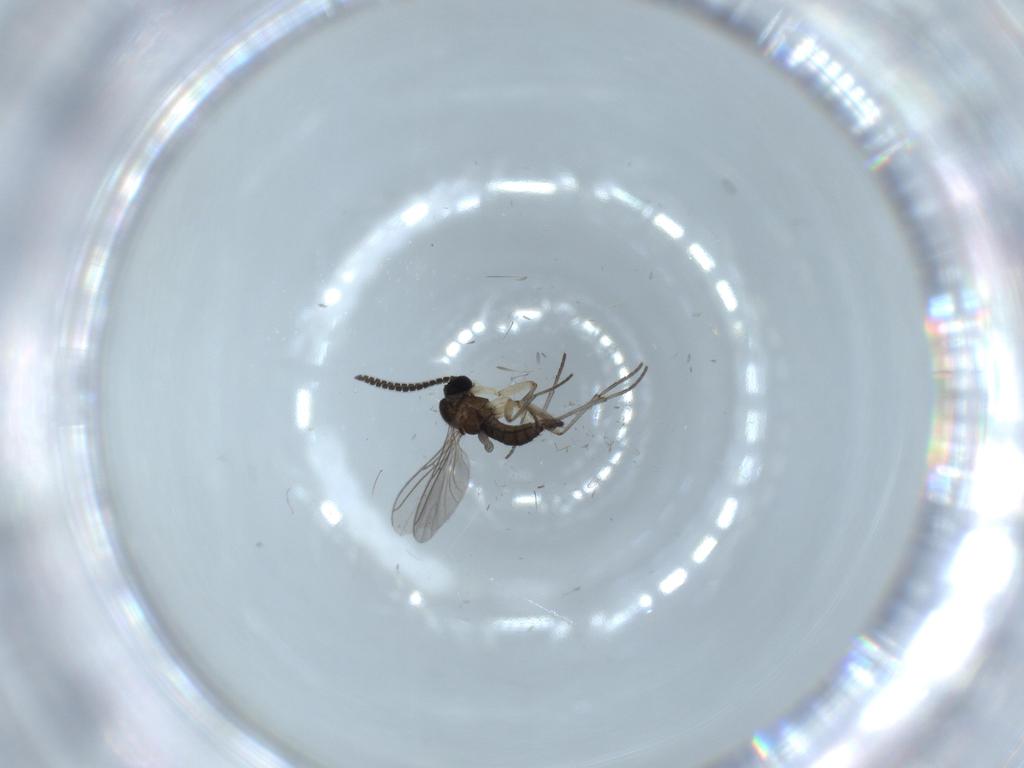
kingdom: Animalia
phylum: Arthropoda
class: Insecta
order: Diptera
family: Sciaridae
